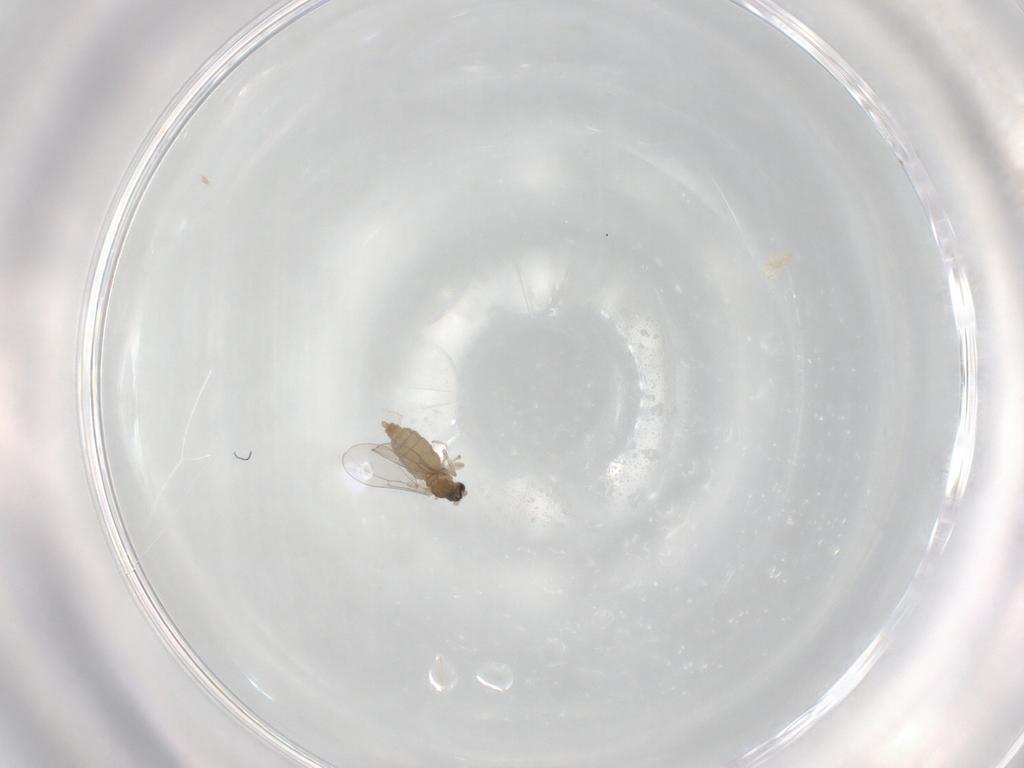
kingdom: Animalia
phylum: Arthropoda
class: Insecta
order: Diptera
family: Cecidomyiidae
